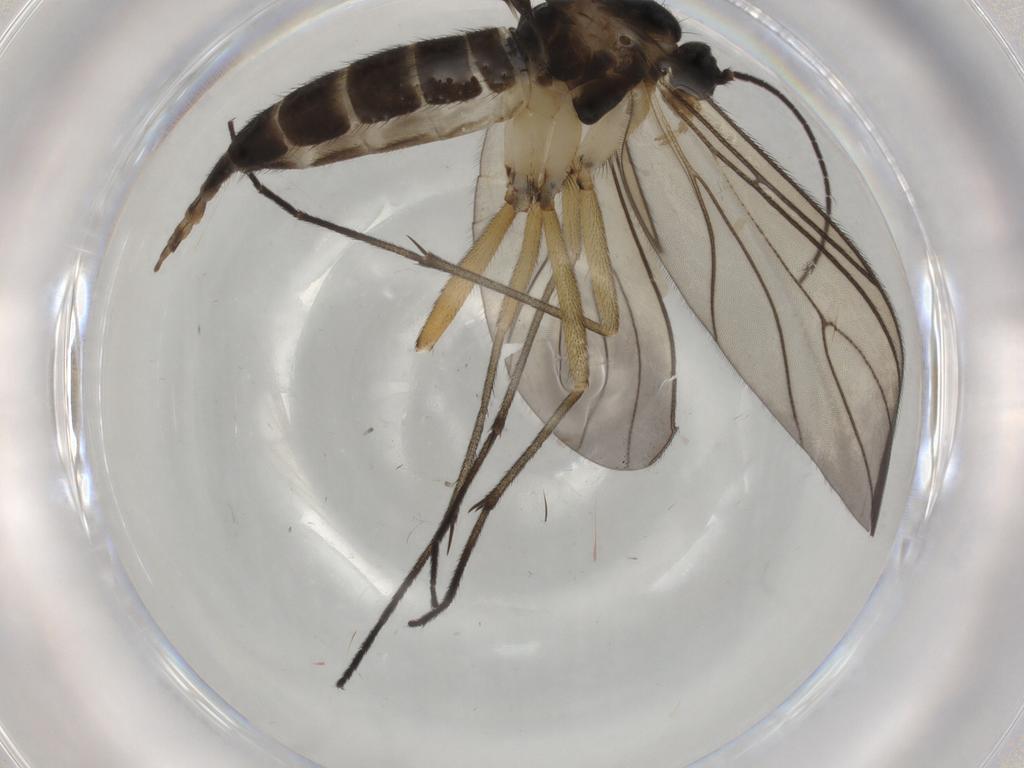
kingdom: Animalia
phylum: Arthropoda
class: Insecta
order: Diptera
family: Sciaridae
